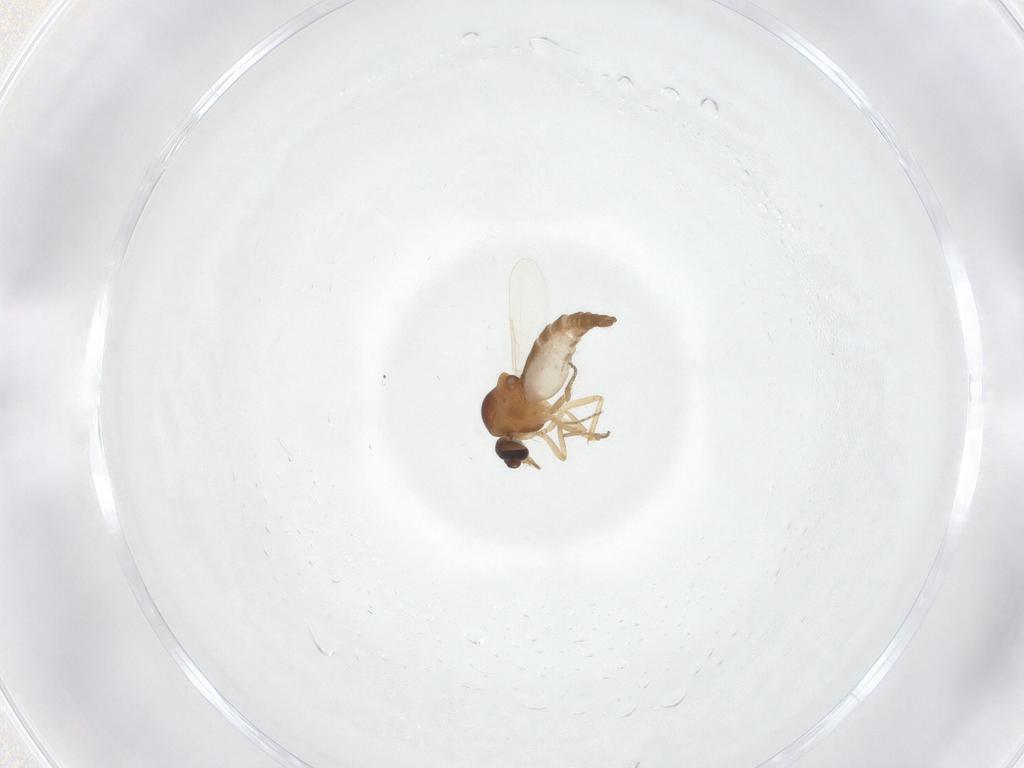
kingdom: Animalia
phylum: Arthropoda
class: Insecta
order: Diptera
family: Ceratopogonidae
